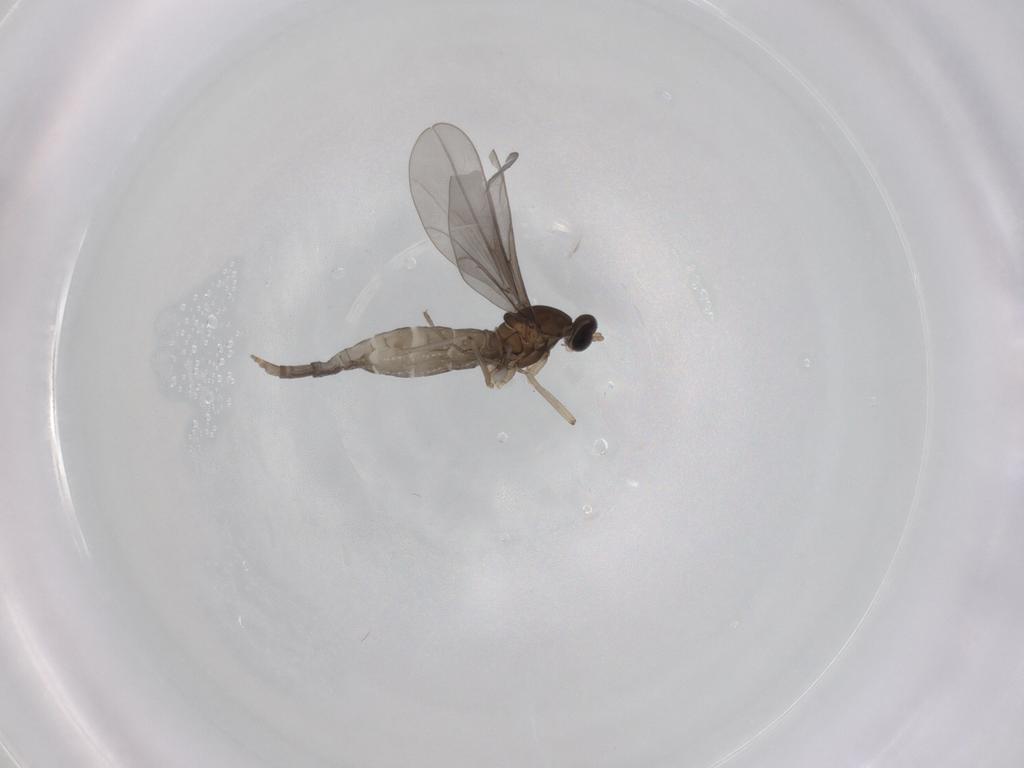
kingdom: Animalia
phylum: Arthropoda
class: Insecta
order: Diptera
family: Cecidomyiidae
